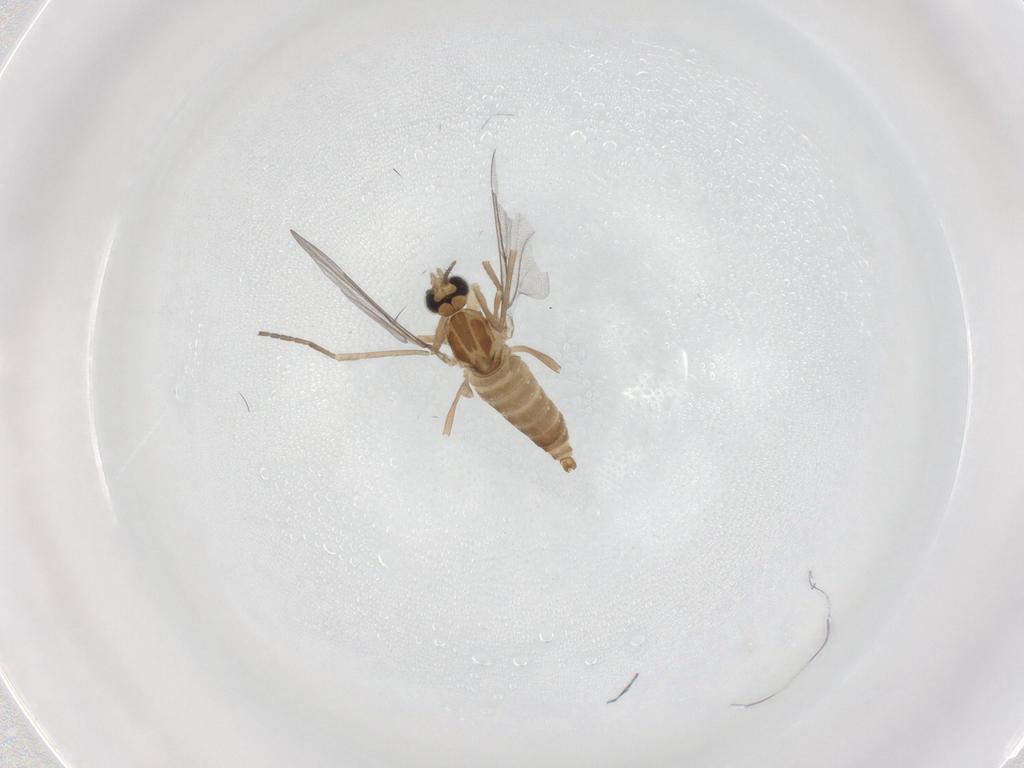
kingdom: Animalia
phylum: Arthropoda
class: Insecta
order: Diptera
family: Cecidomyiidae
